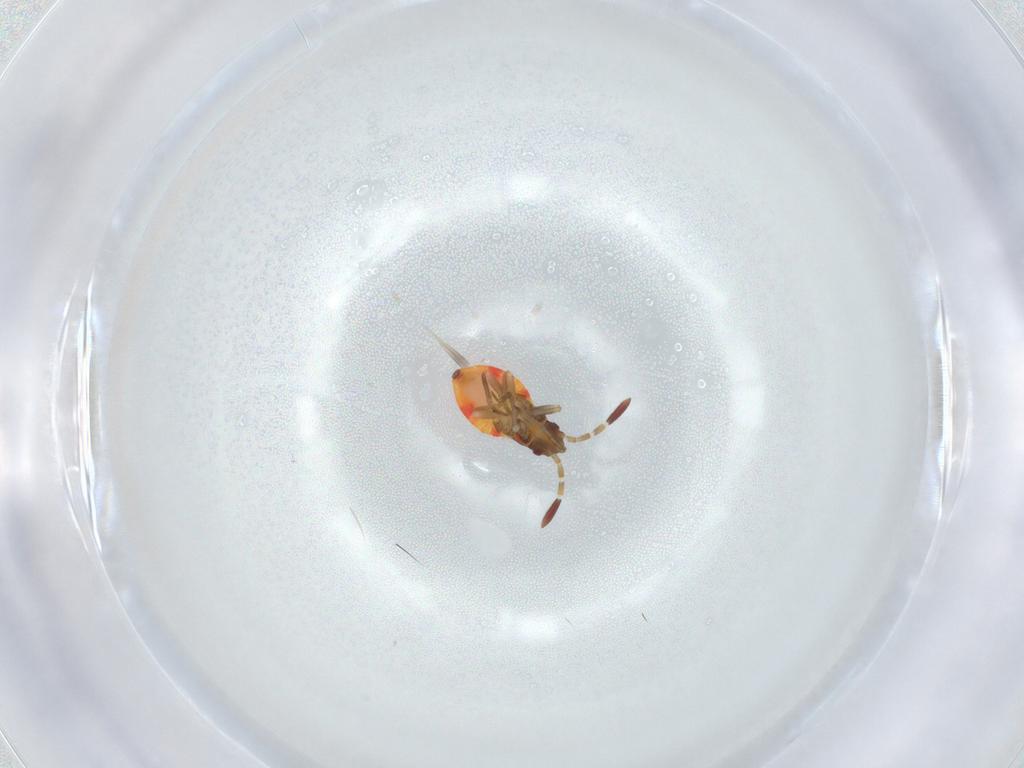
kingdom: Animalia
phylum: Arthropoda
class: Insecta
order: Hemiptera
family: Rhyparochromidae
